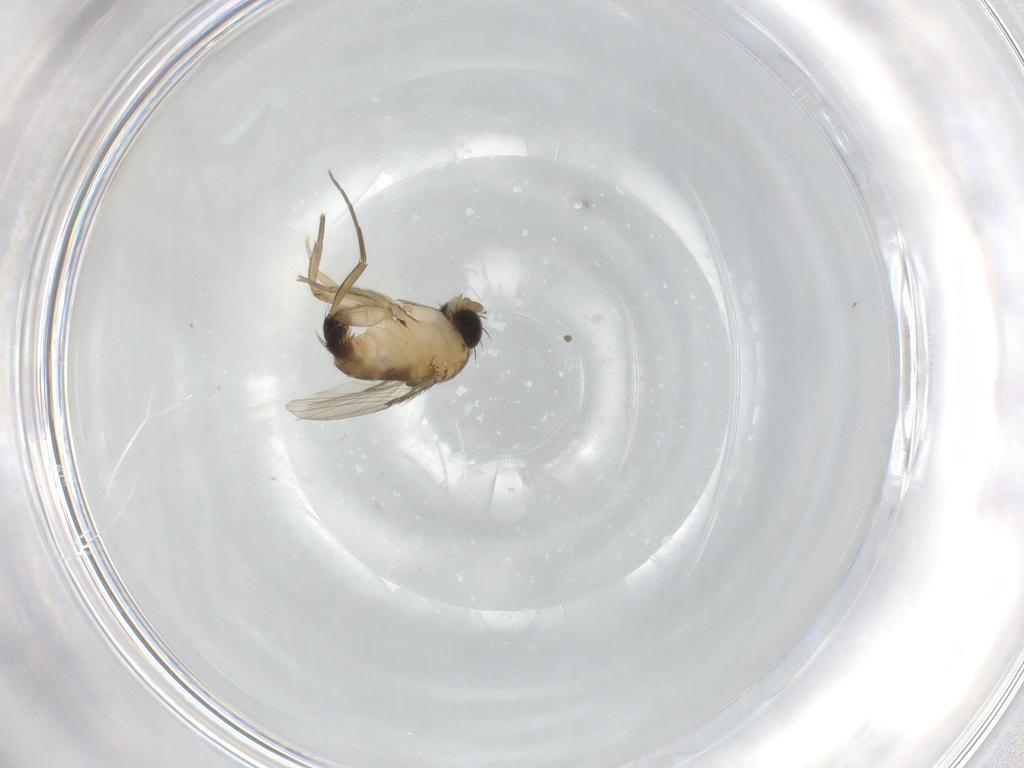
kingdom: Animalia
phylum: Arthropoda
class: Insecta
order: Diptera
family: Phoridae
